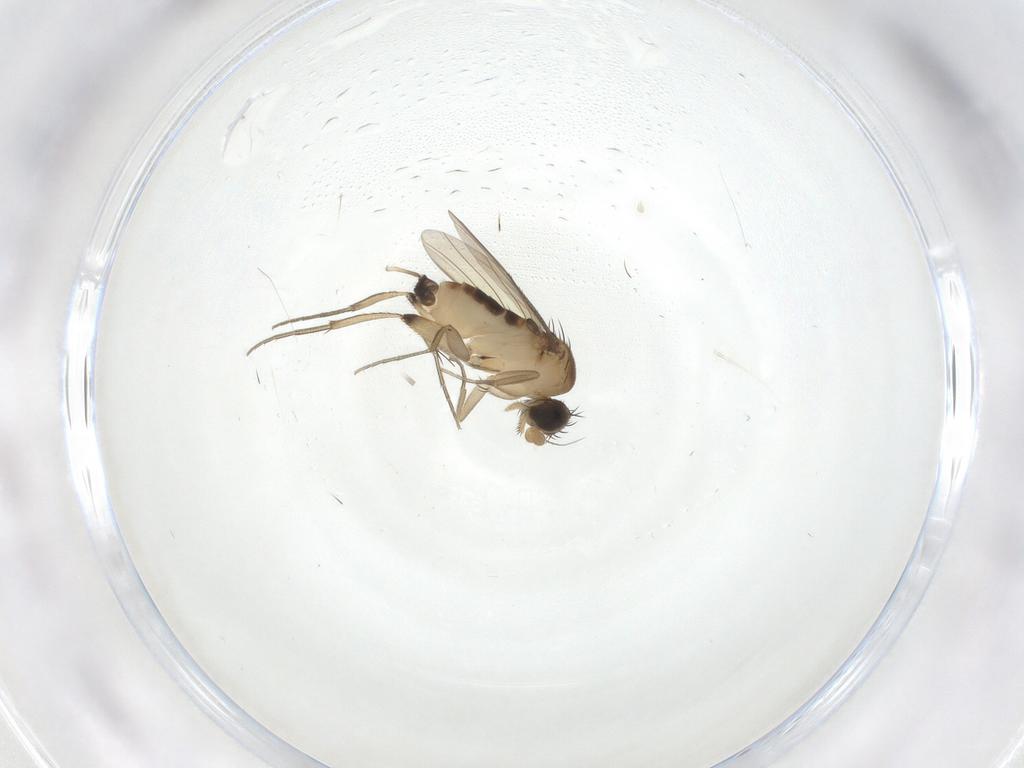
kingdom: Animalia
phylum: Arthropoda
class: Insecta
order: Diptera
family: Phoridae
